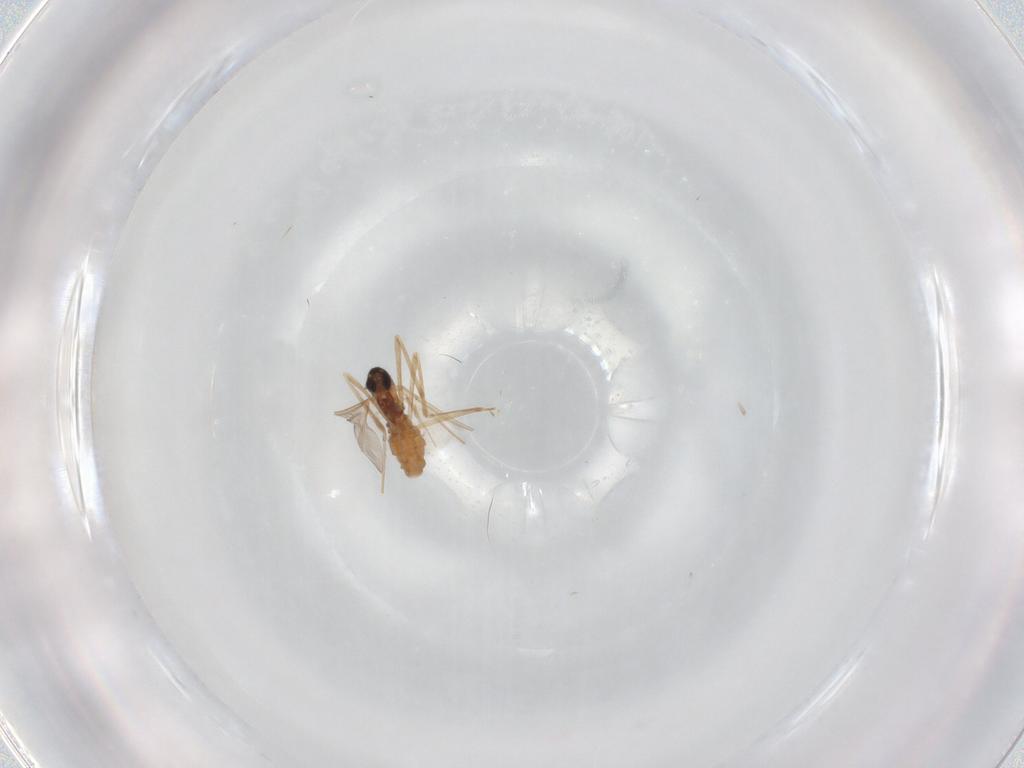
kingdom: Animalia
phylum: Arthropoda
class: Insecta
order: Diptera
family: Cecidomyiidae
